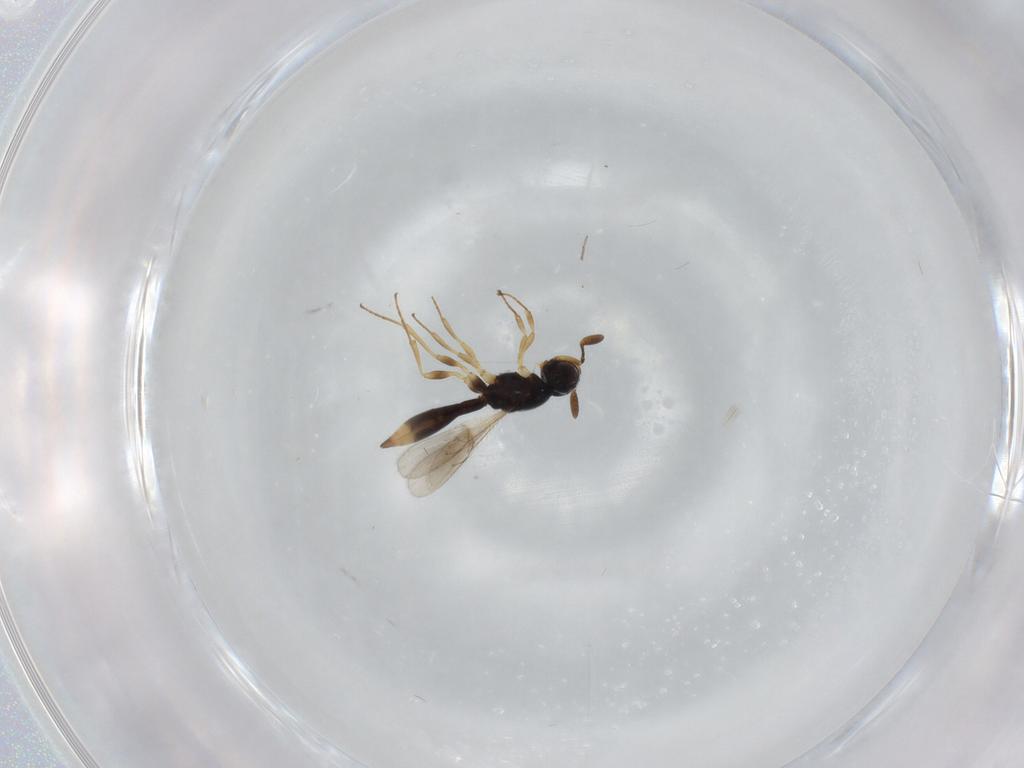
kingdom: Animalia
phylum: Arthropoda
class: Insecta
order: Hymenoptera
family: Scelionidae
